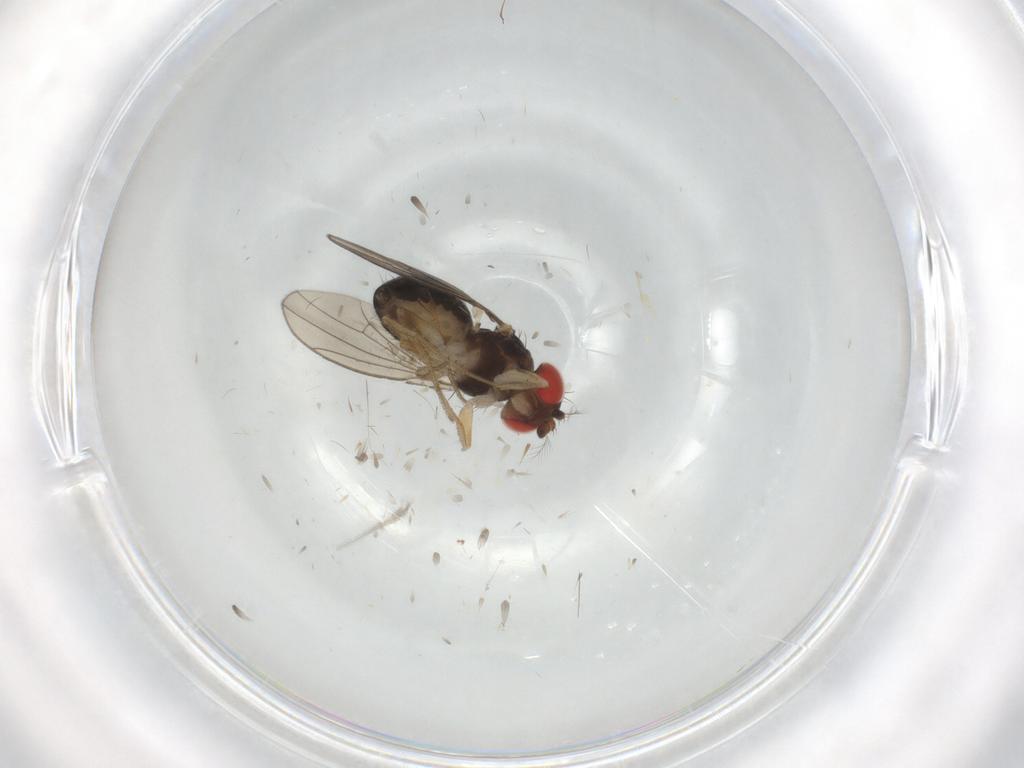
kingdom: Animalia
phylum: Arthropoda
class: Insecta
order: Diptera
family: Drosophilidae
